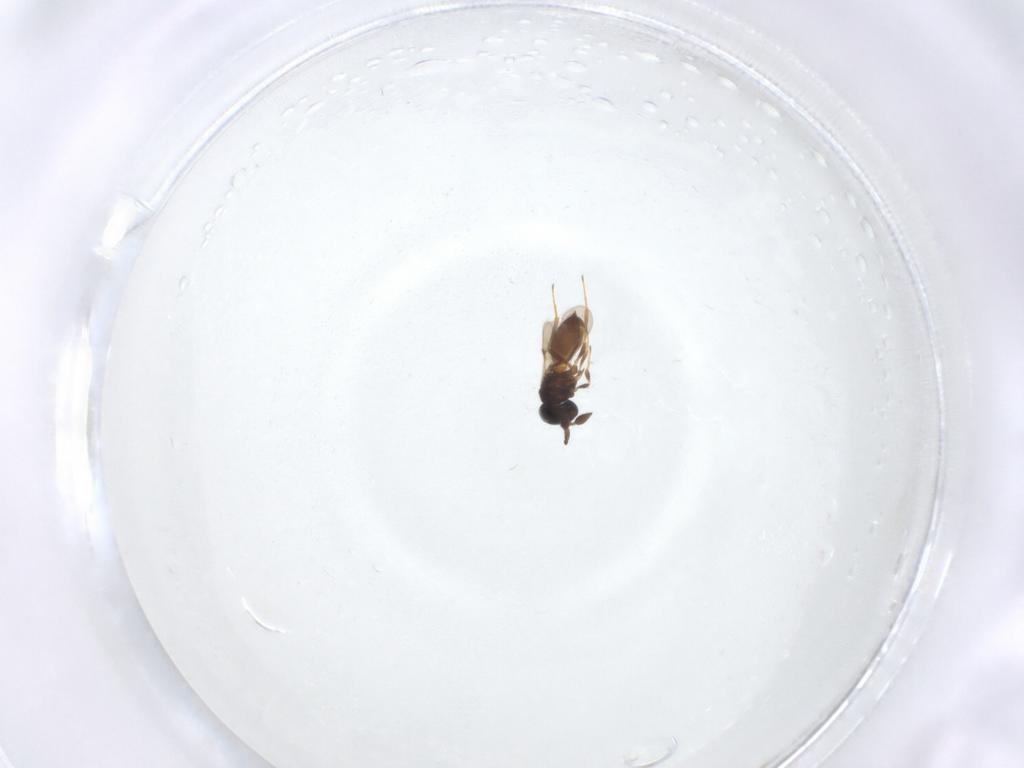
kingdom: Animalia
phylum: Arthropoda
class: Insecta
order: Hymenoptera
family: Scelionidae
